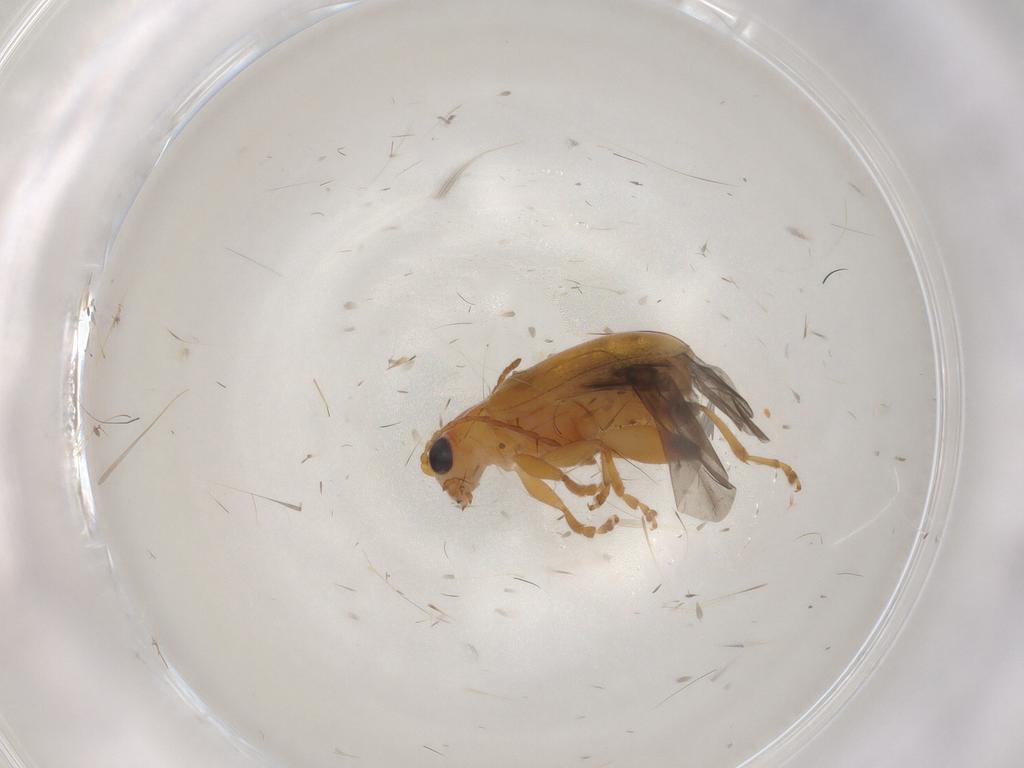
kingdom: Animalia
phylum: Arthropoda
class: Insecta
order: Coleoptera
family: Chrysomelidae
